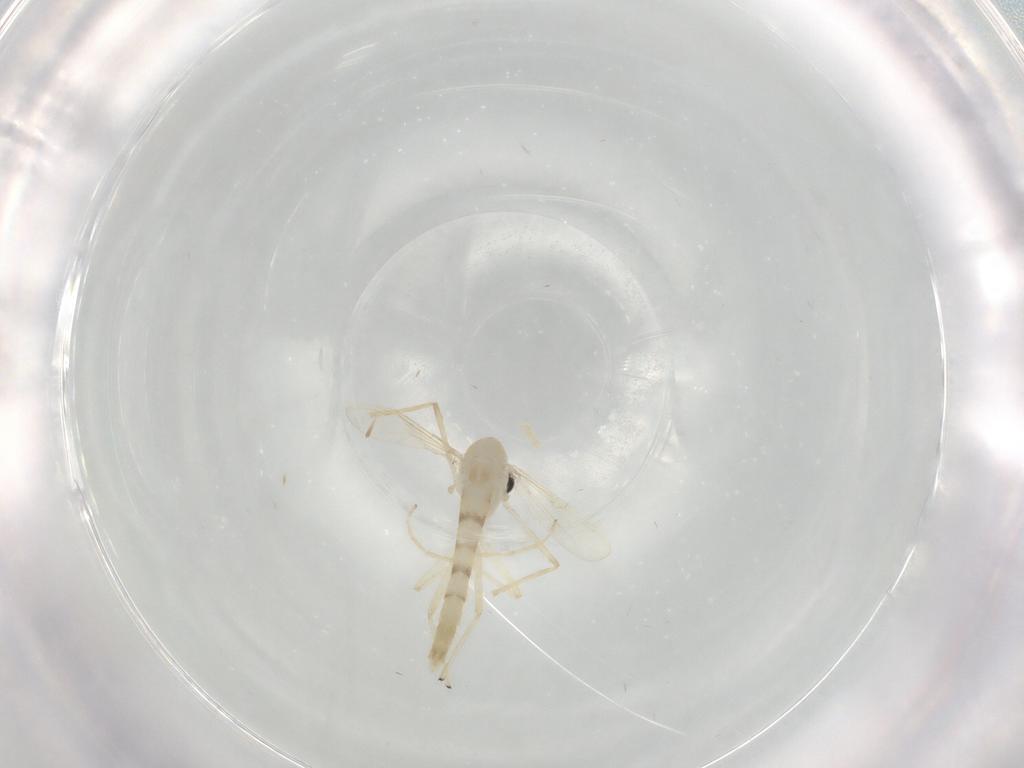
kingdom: Animalia
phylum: Arthropoda
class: Insecta
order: Diptera
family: Chironomidae
